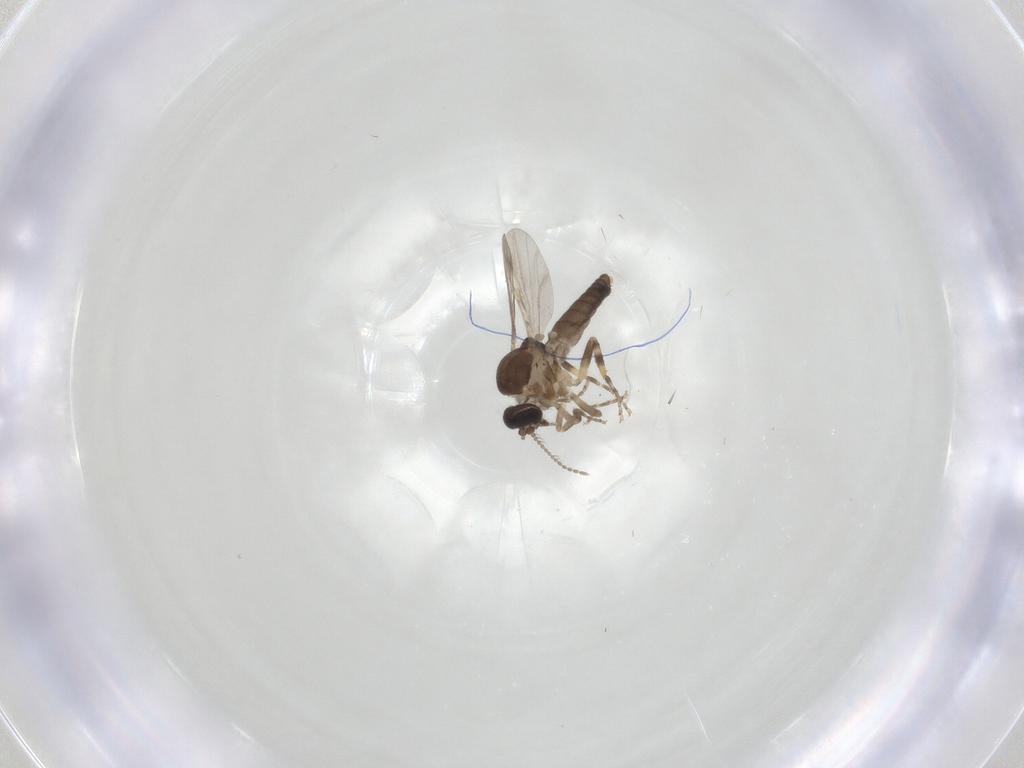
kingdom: Animalia
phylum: Arthropoda
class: Insecta
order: Diptera
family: Ceratopogonidae
